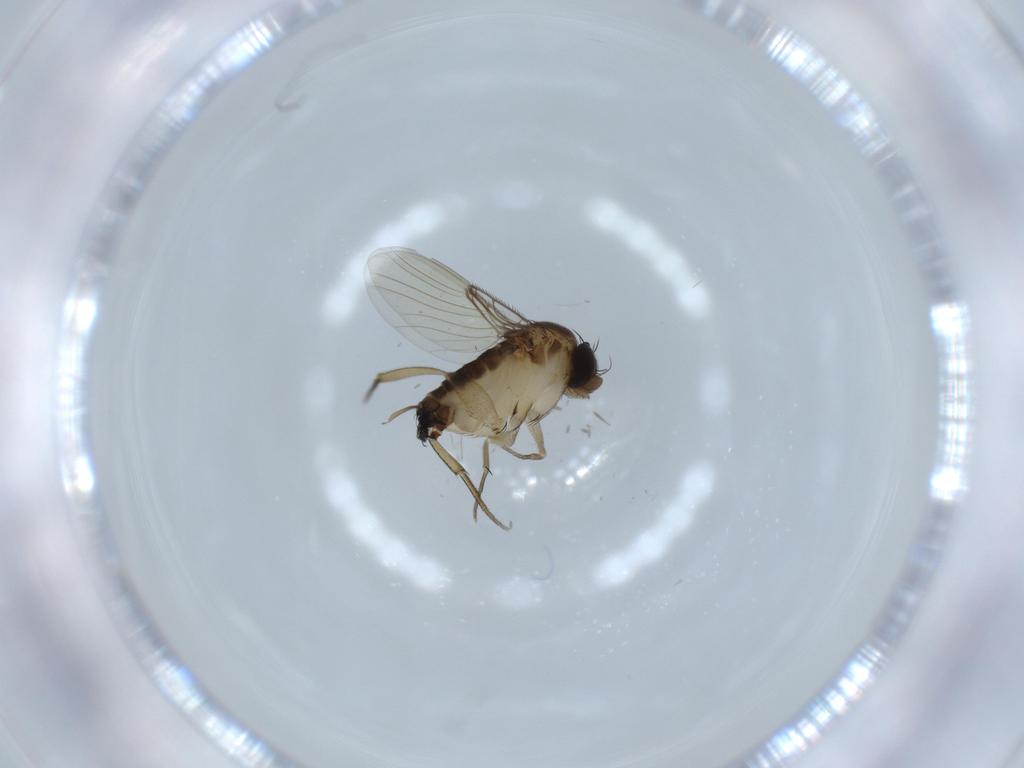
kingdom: Animalia
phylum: Arthropoda
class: Insecta
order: Diptera
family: Phoridae
